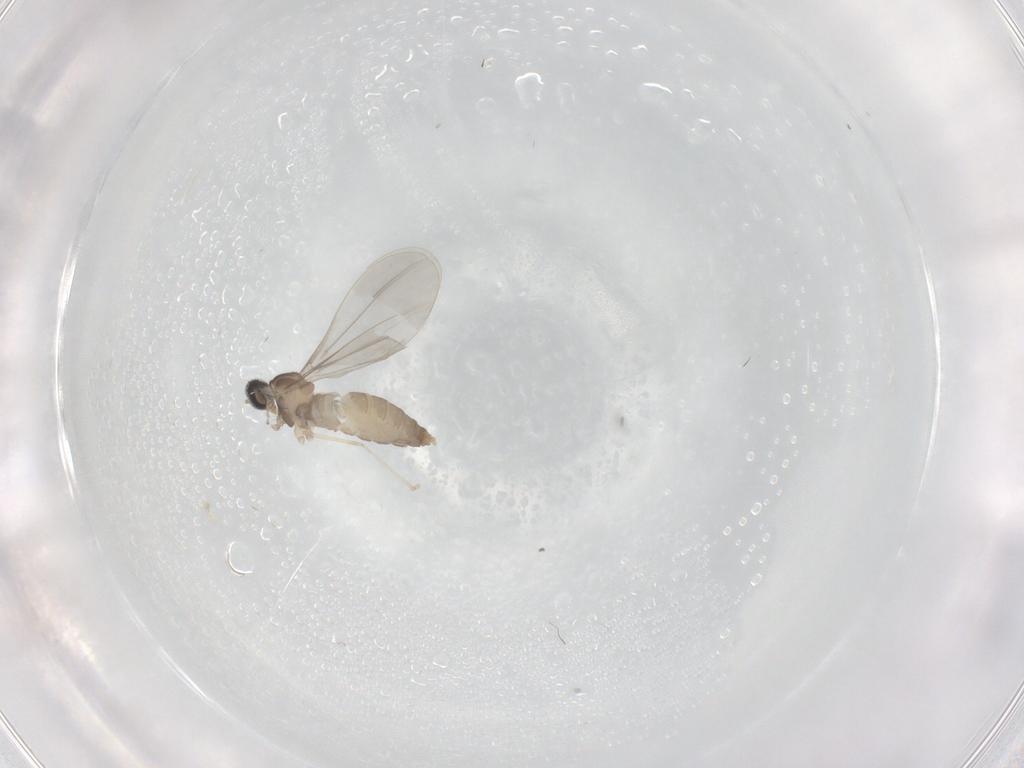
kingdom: Animalia
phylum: Arthropoda
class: Insecta
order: Diptera
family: Cecidomyiidae
